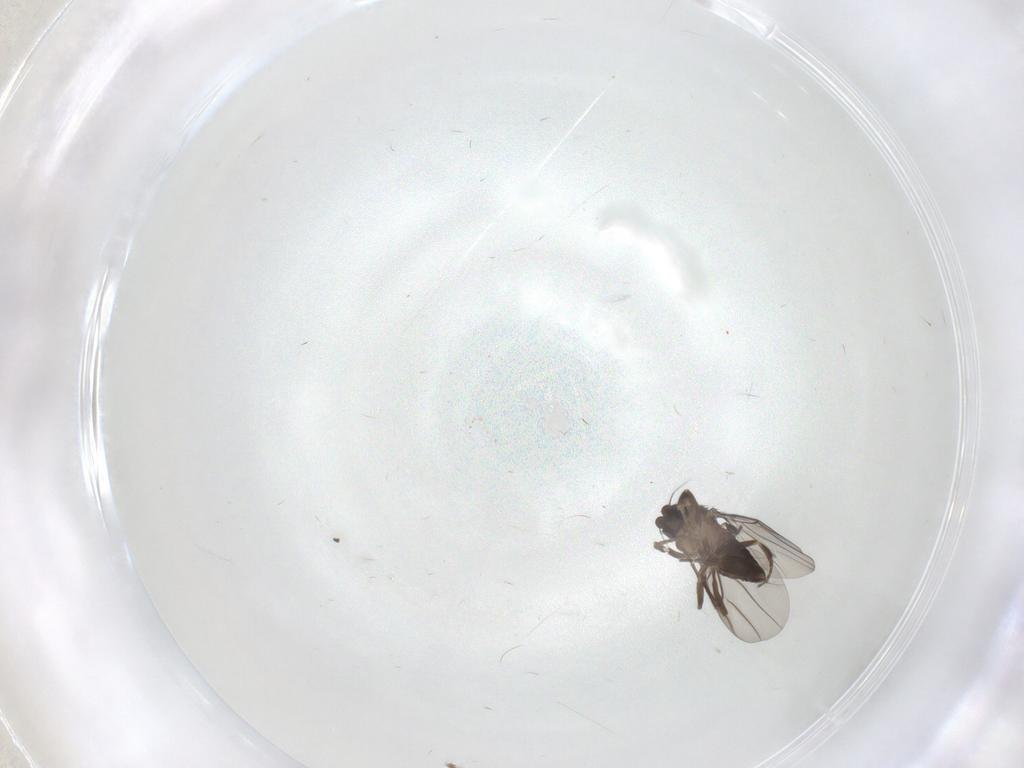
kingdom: Animalia
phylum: Arthropoda
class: Insecta
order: Diptera
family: Phoridae
